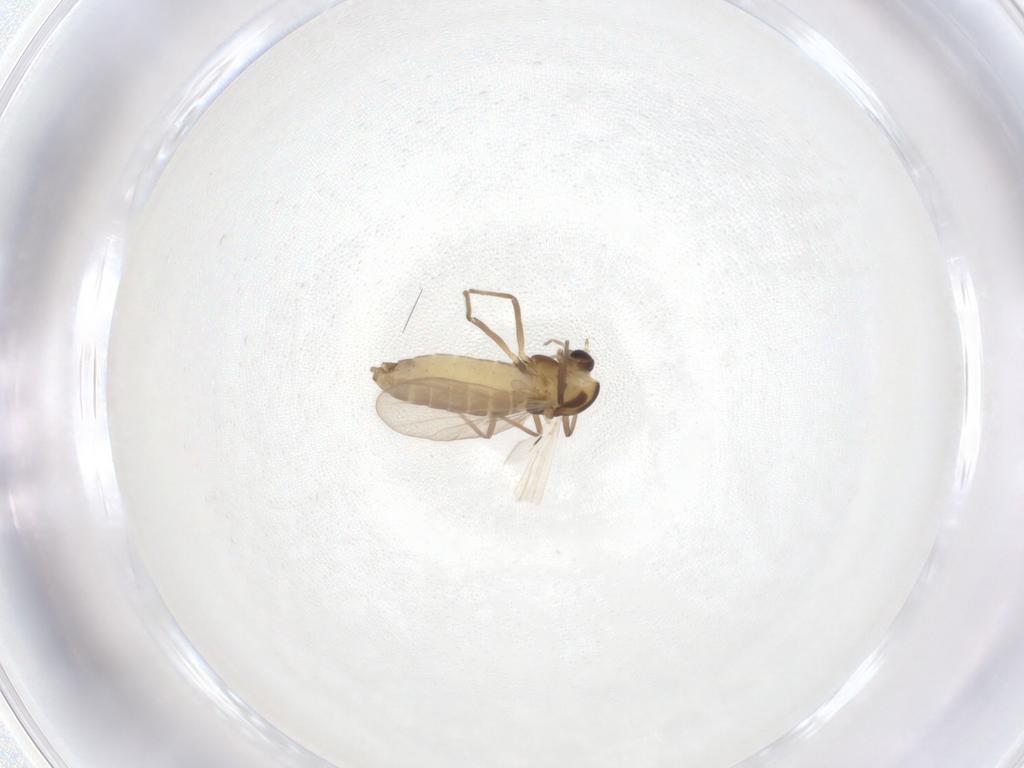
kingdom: Animalia
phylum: Arthropoda
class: Insecta
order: Diptera
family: Chironomidae
